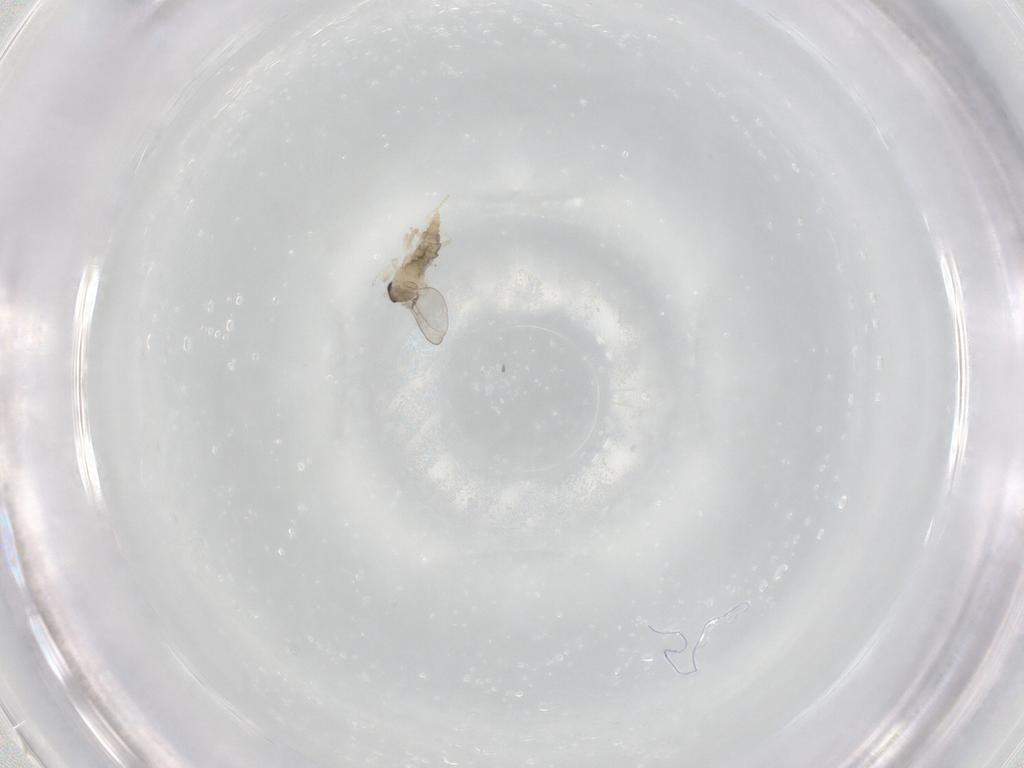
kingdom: Animalia
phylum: Arthropoda
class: Insecta
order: Diptera
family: Cecidomyiidae
